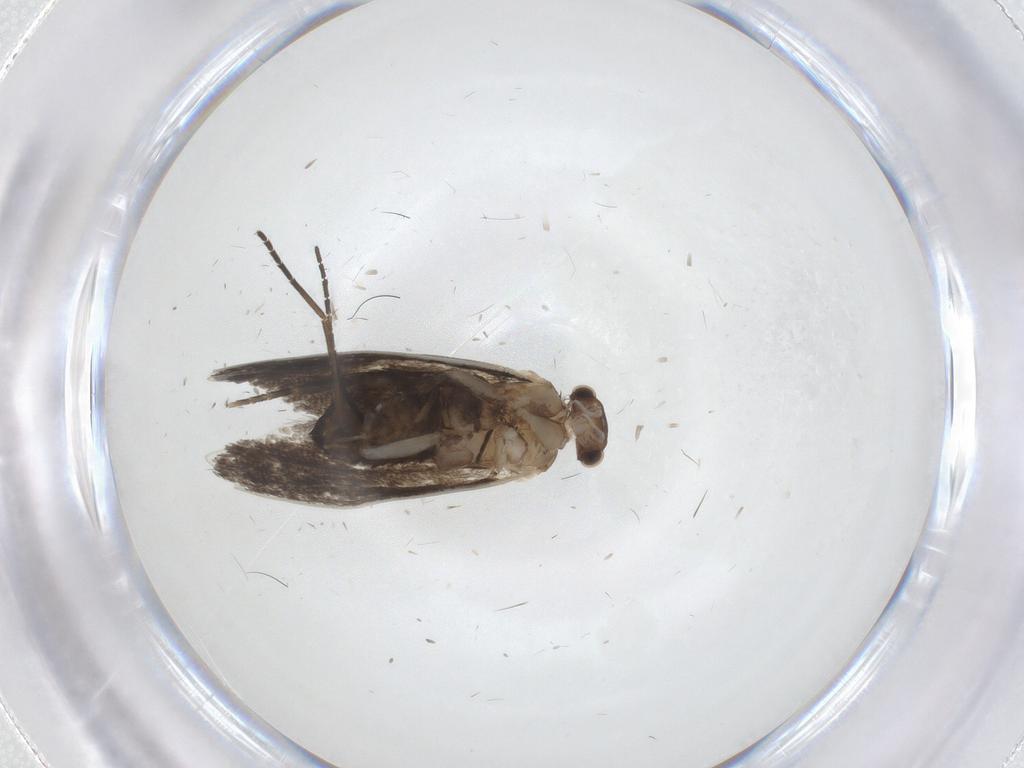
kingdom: Animalia
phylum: Arthropoda
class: Insecta
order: Lepidoptera
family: Tineidae
